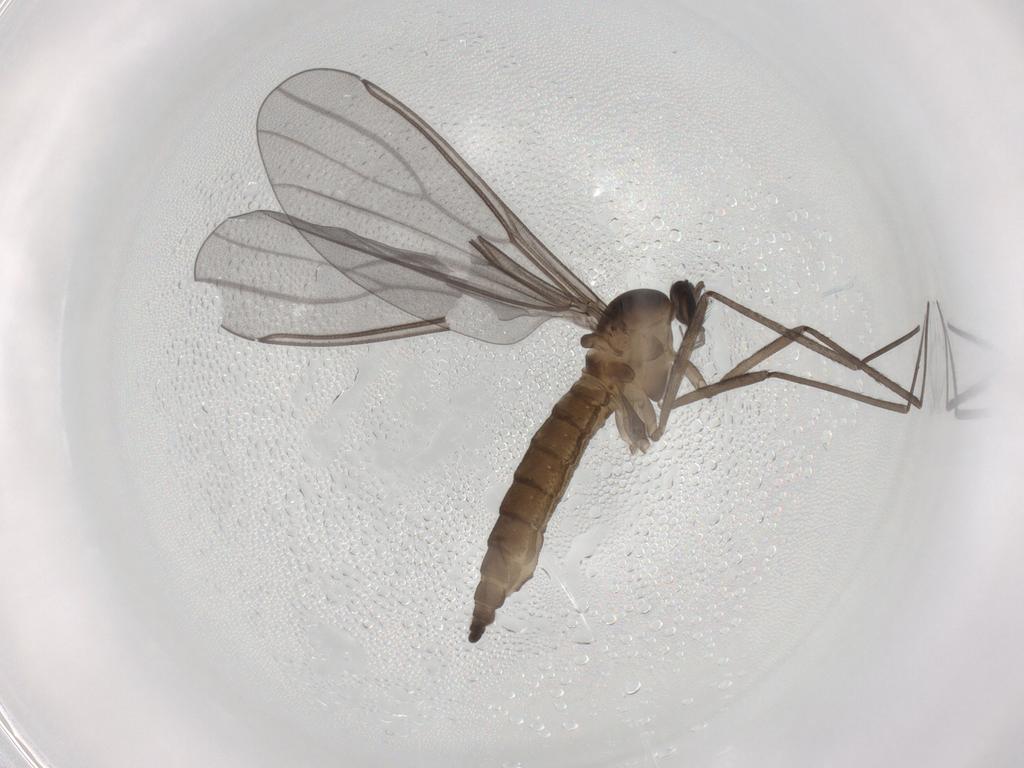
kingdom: Animalia
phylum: Arthropoda
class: Insecta
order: Diptera
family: Cecidomyiidae
